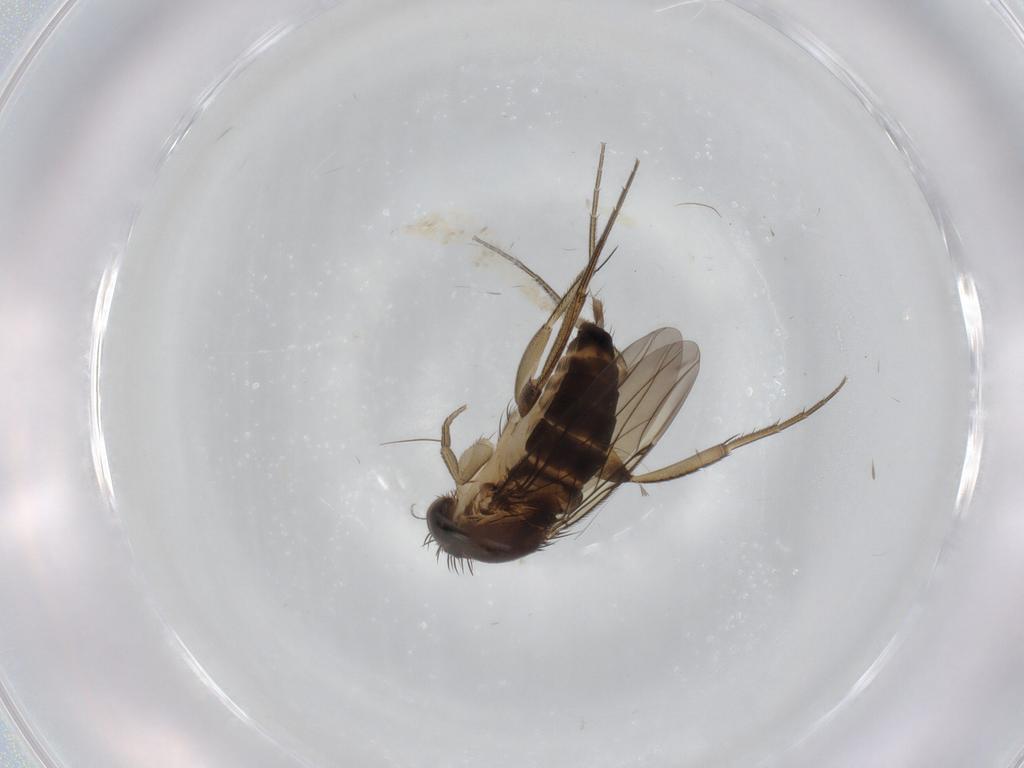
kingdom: Animalia
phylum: Arthropoda
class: Insecta
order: Diptera
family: Phoridae
